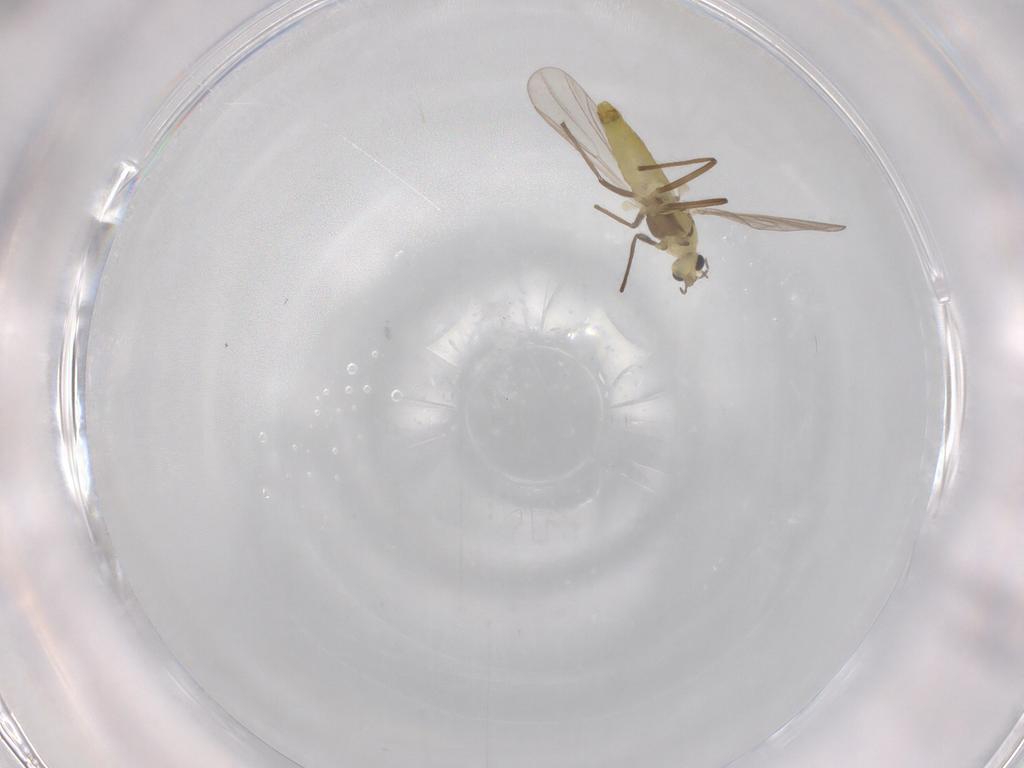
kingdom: Animalia
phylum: Arthropoda
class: Insecta
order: Diptera
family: Chironomidae
